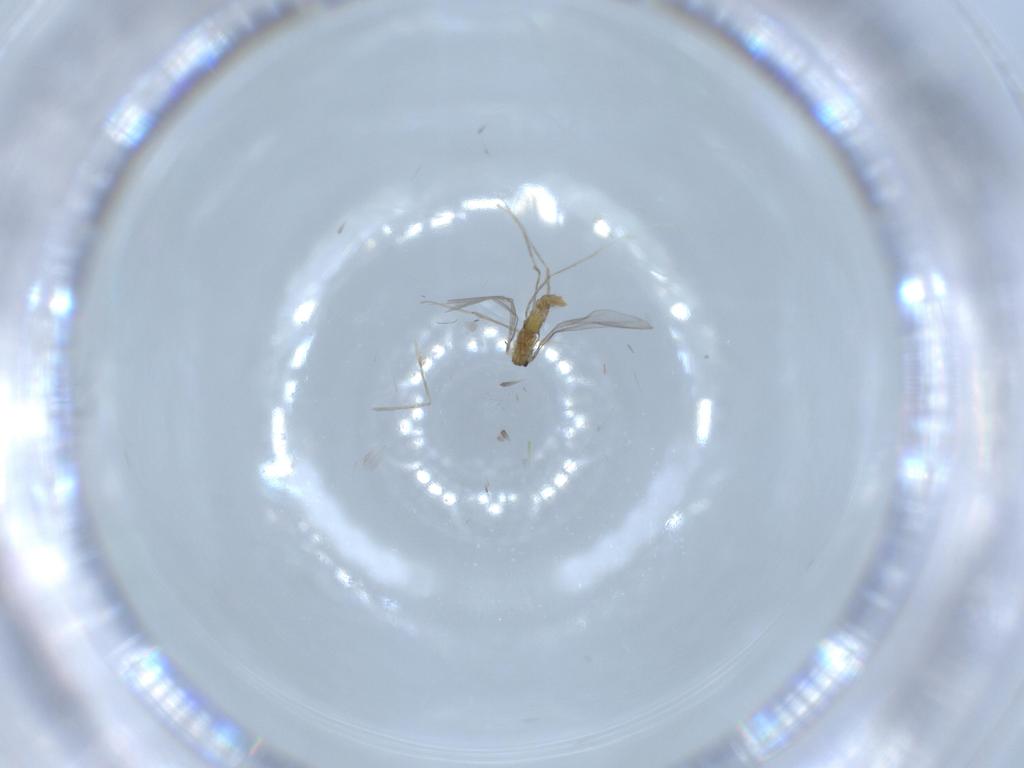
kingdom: Animalia
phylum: Arthropoda
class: Insecta
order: Diptera
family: Cecidomyiidae
